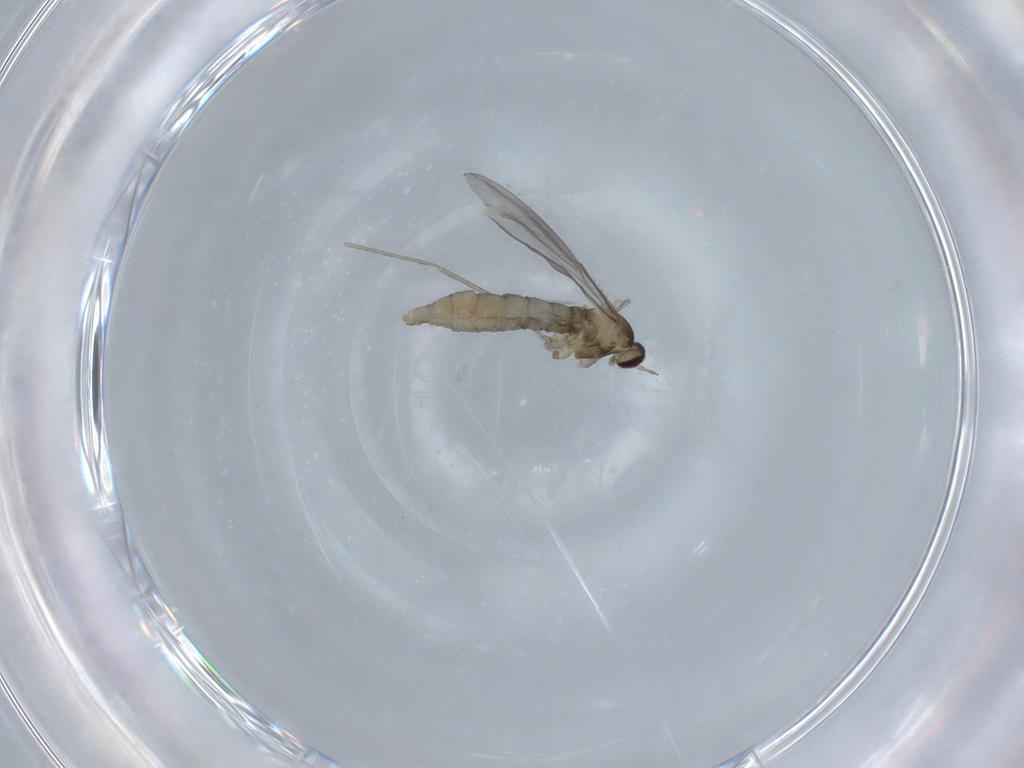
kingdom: Animalia
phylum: Arthropoda
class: Insecta
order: Diptera
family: Cecidomyiidae
